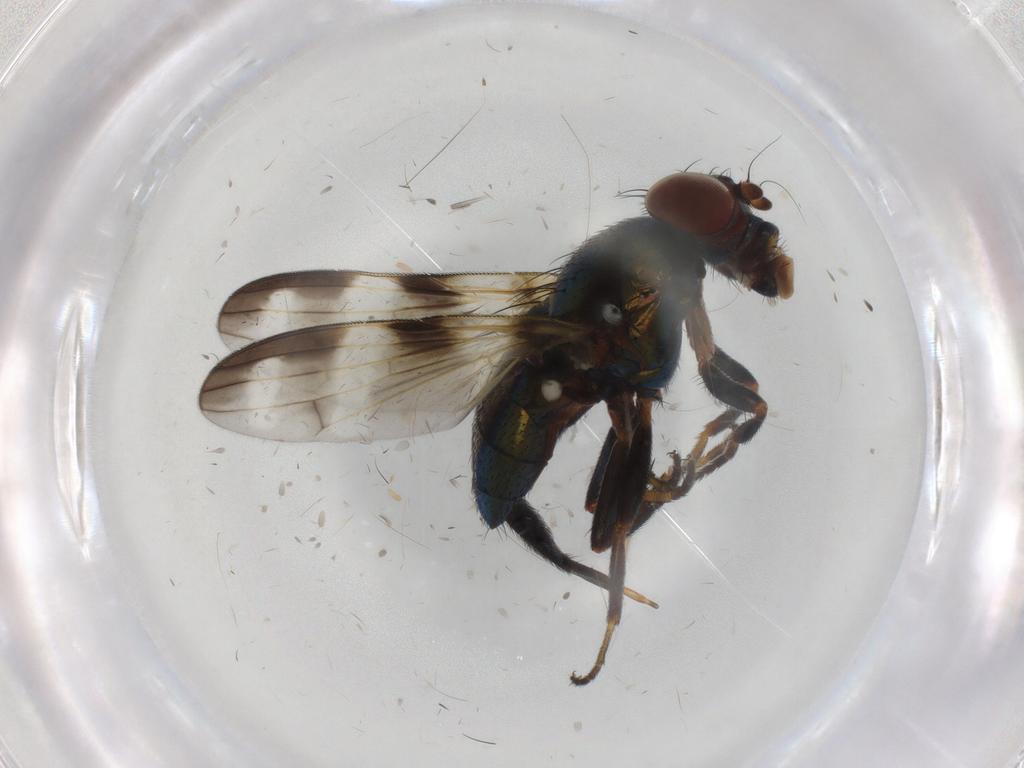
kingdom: Animalia
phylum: Arthropoda
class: Insecta
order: Diptera
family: Ulidiidae
